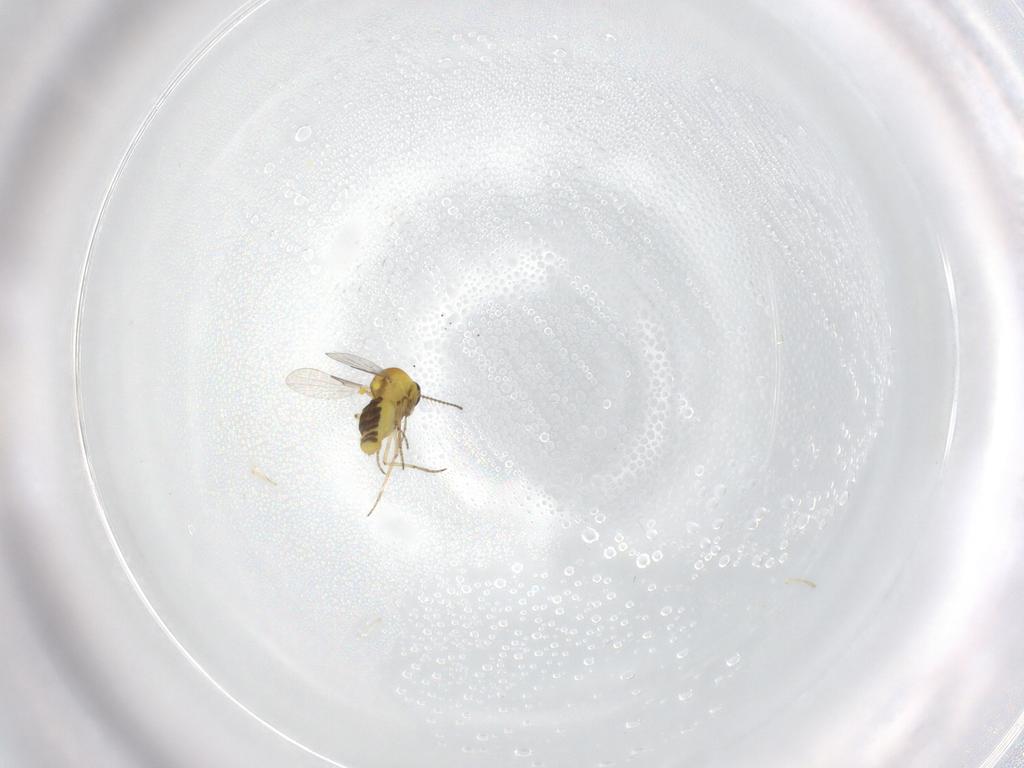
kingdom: Animalia
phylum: Arthropoda
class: Insecta
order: Diptera
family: Ceratopogonidae
